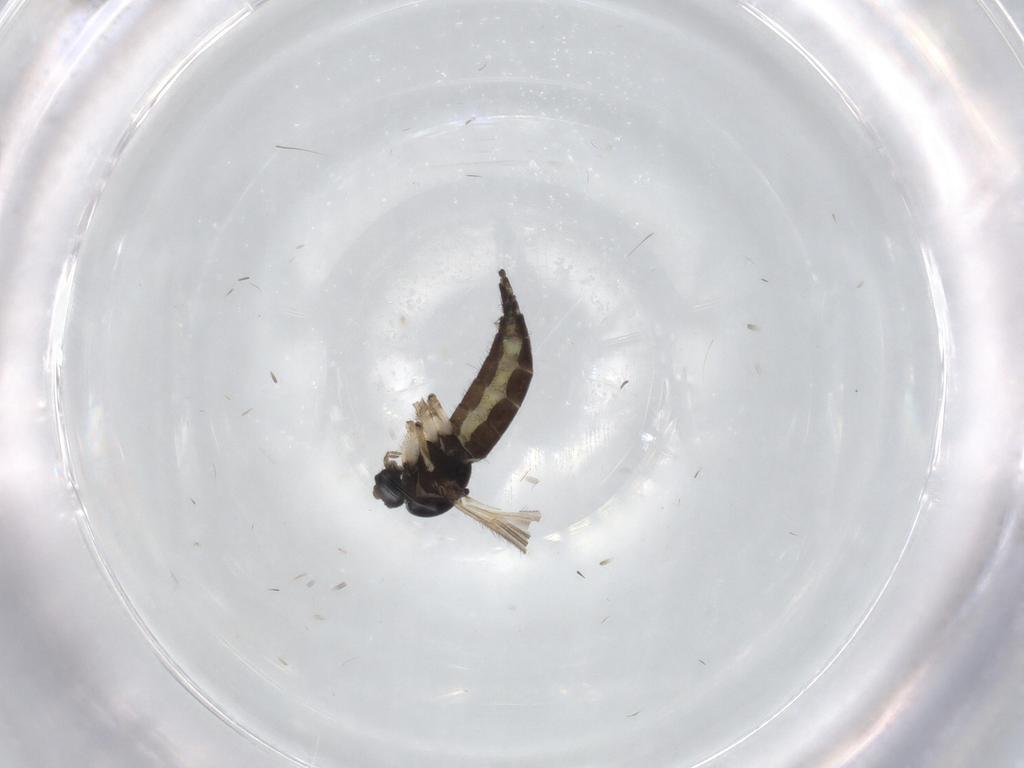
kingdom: Animalia
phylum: Arthropoda
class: Insecta
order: Diptera
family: Sciaridae
